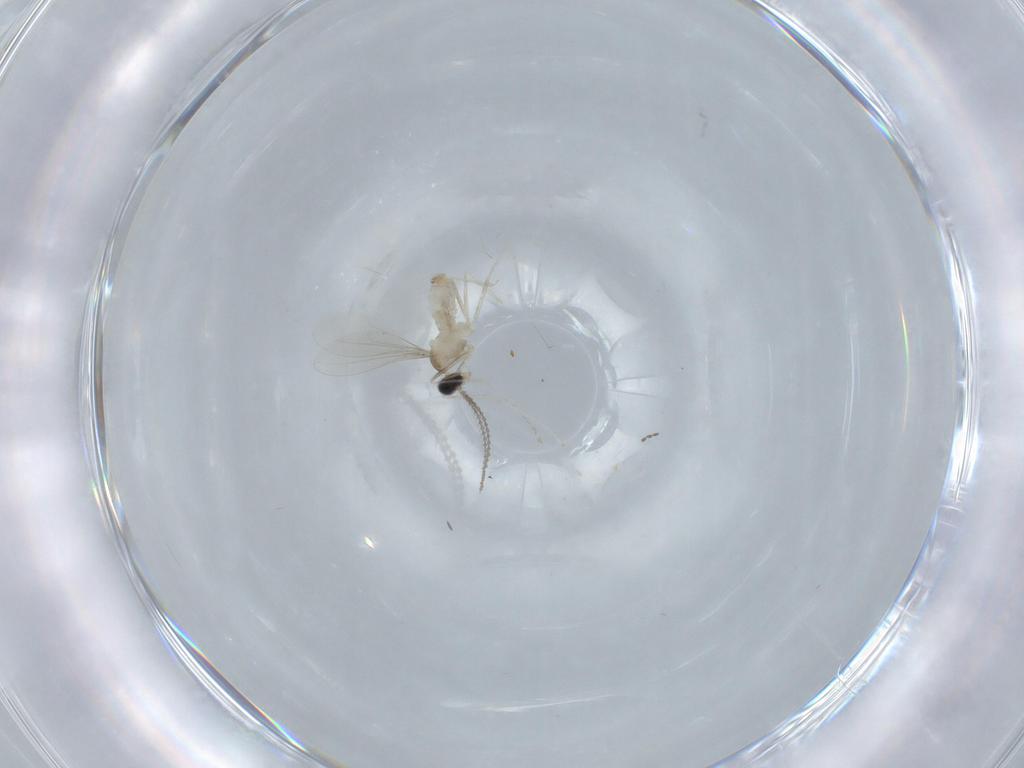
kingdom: Animalia
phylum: Arthropoda
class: Insecta
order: Diptera
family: Cecidomyiidae
